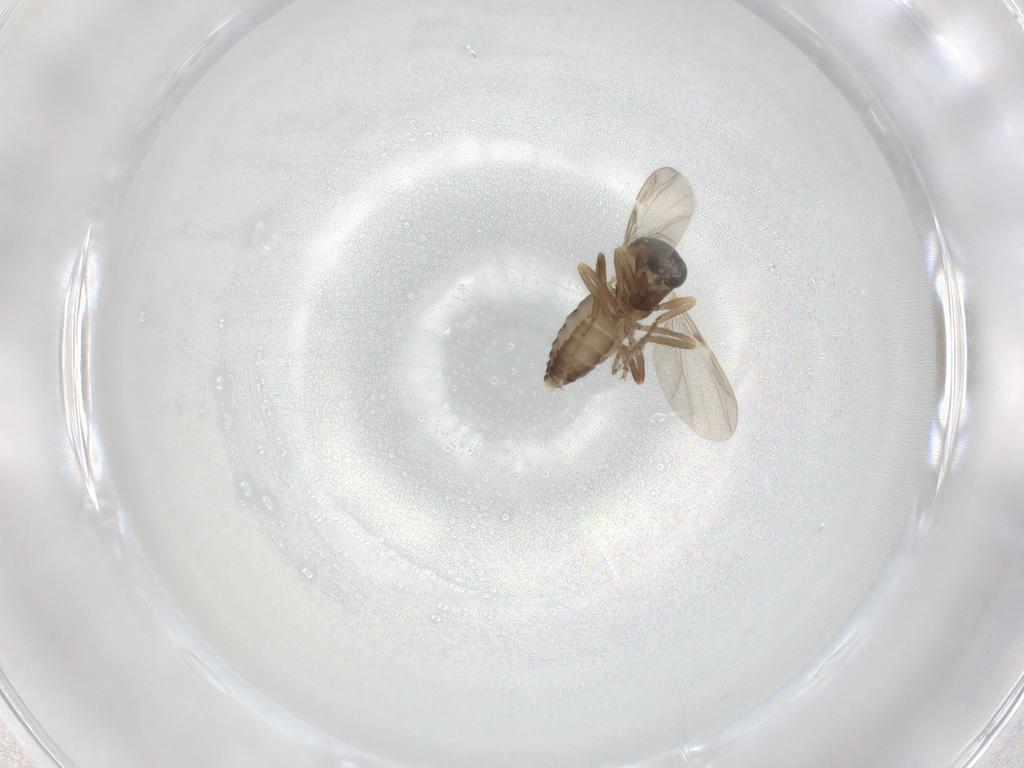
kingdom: Animalia
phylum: Arthropoda
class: Insecta
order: Diptera
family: Ceratopogonidae
